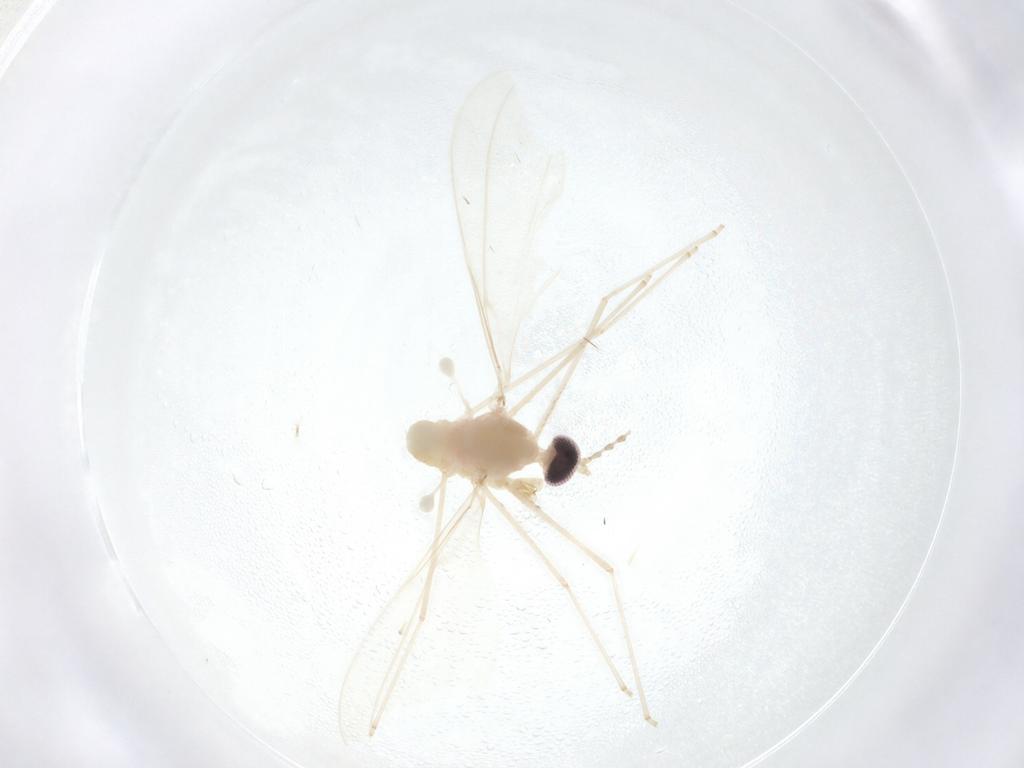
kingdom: Animalia
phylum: Arthropoda
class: Insecta
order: Diptera
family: Cecidomyiidae
